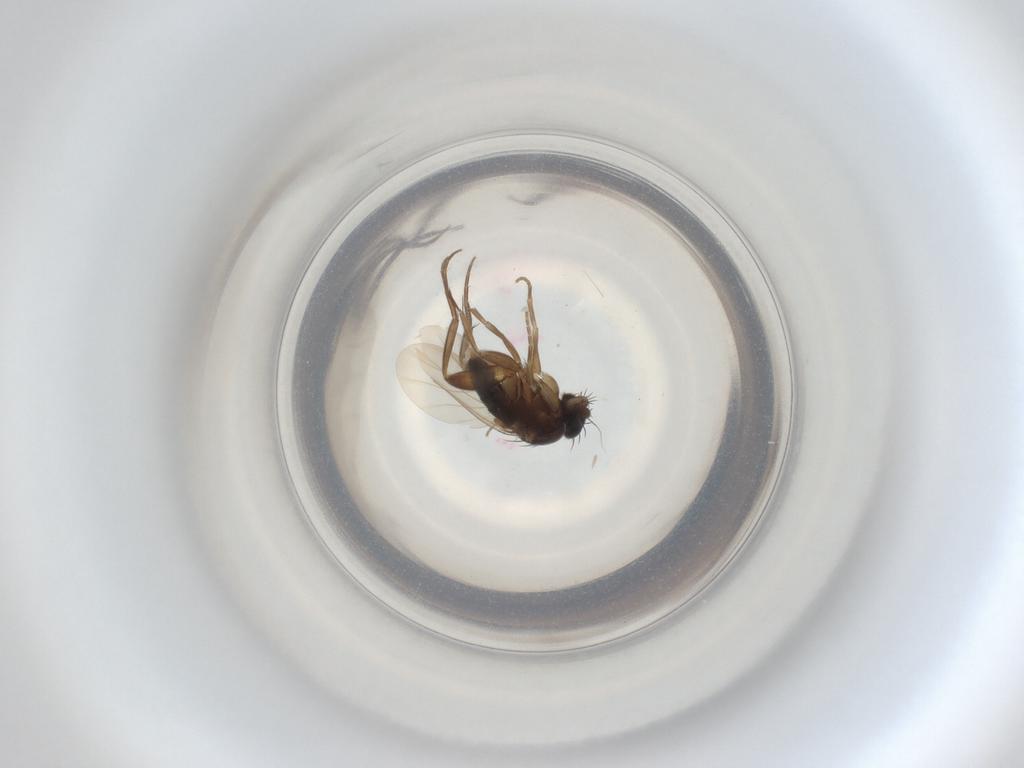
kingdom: Animalia
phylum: Arthropoda
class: Insecta
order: Diptera
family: Phoridae
